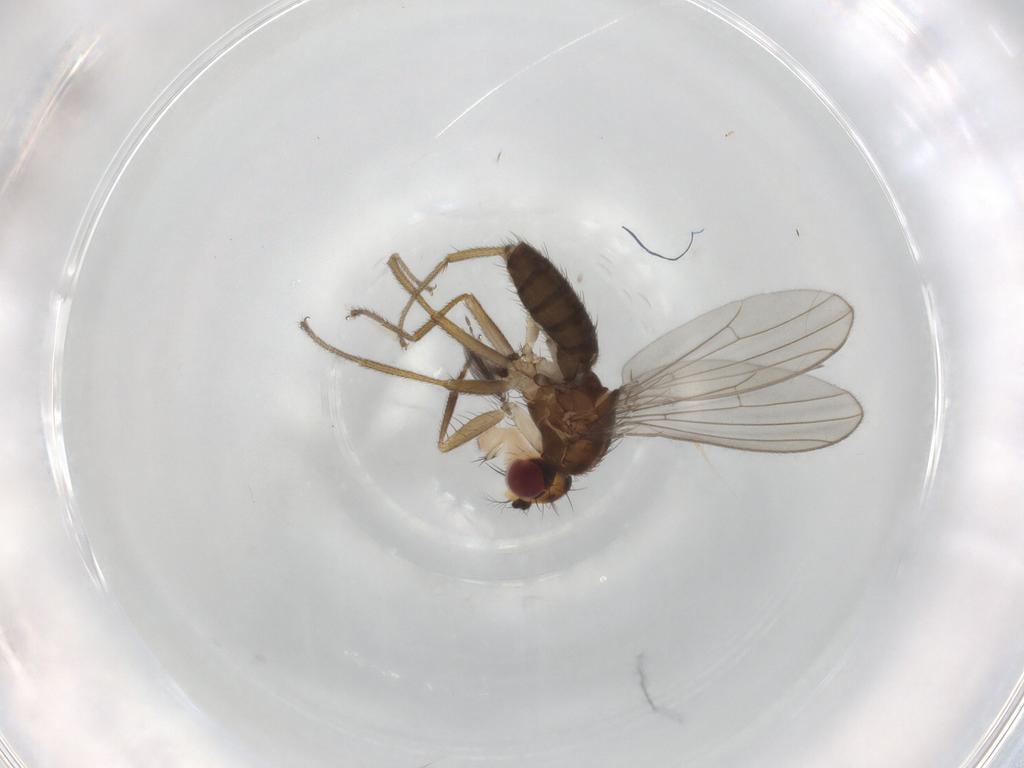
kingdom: Animalia
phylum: Arthropoda
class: Insecta
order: Diptera
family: Drosophilidae
